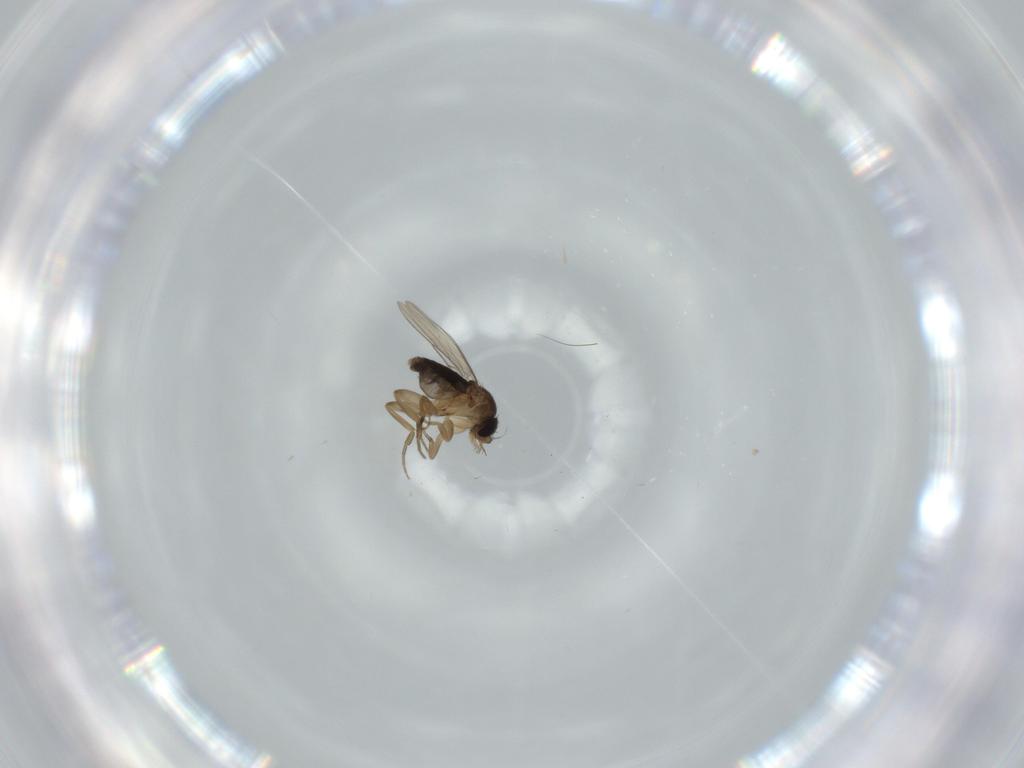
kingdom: Animalia
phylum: Arthropoda
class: Insecta
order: Diptera
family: Phoridae
